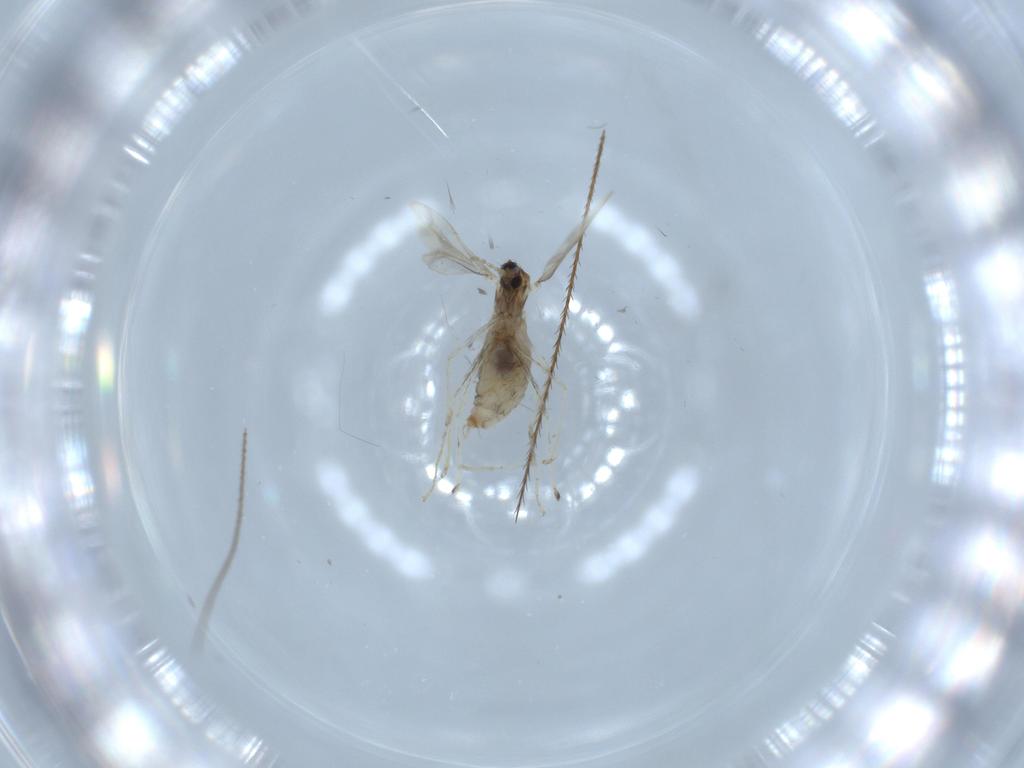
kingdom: Animalia
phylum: Arthropoda
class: Insecta
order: Diptera
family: Cecidomyiidae
